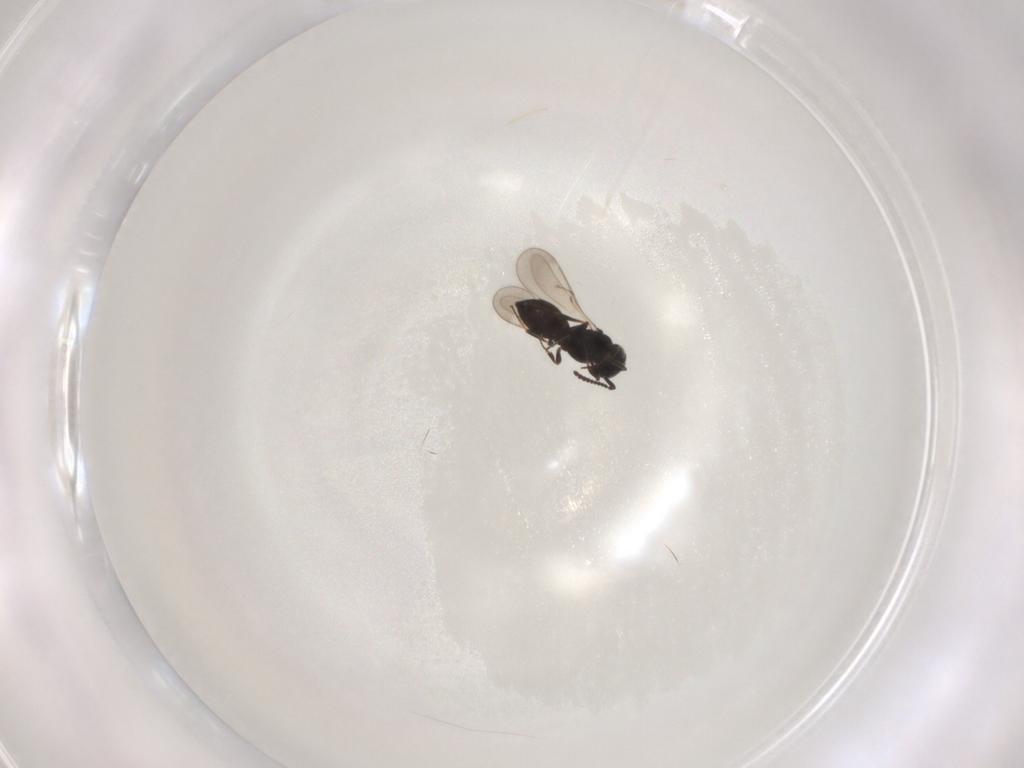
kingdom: Animalia
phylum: Arthropoda
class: Insecta
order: Hymenoptera
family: Scelionidae
